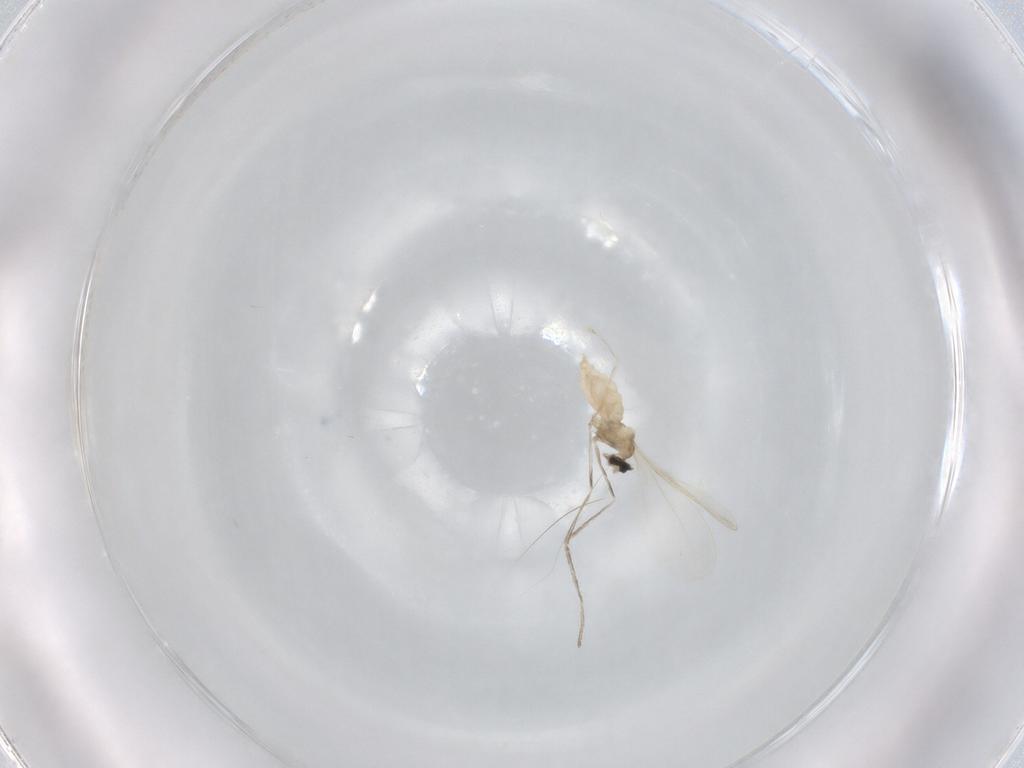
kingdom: Animalia
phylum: Arthropoda
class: Insecta
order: Diptera
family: Cecidomyiidae
